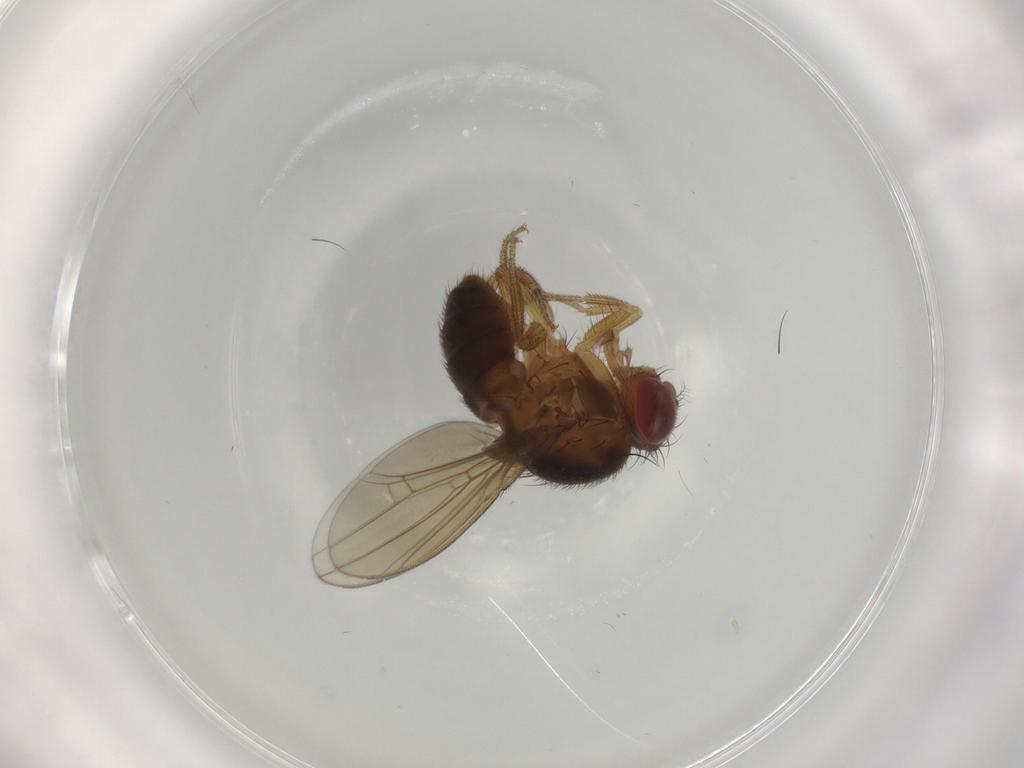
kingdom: Animalia
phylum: Arthropoda
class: Insecta
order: Diptera
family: Drosophilidae
